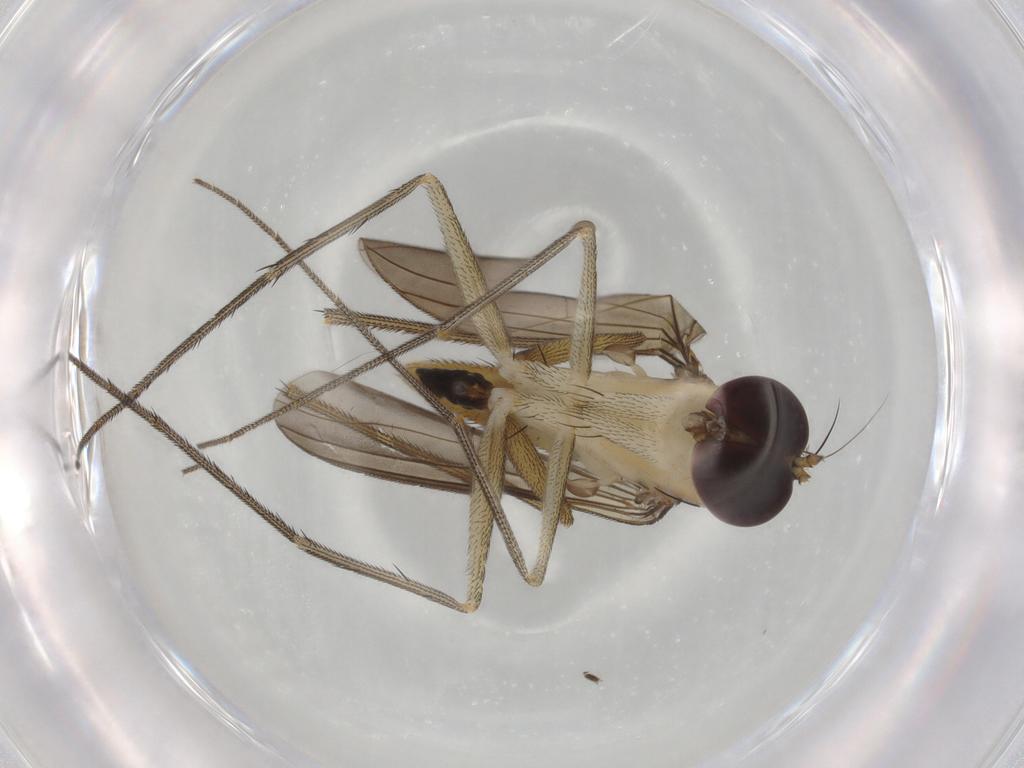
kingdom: Animalia
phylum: Arthropoda
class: Insecta
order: Diptera
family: Dolichopodidae
